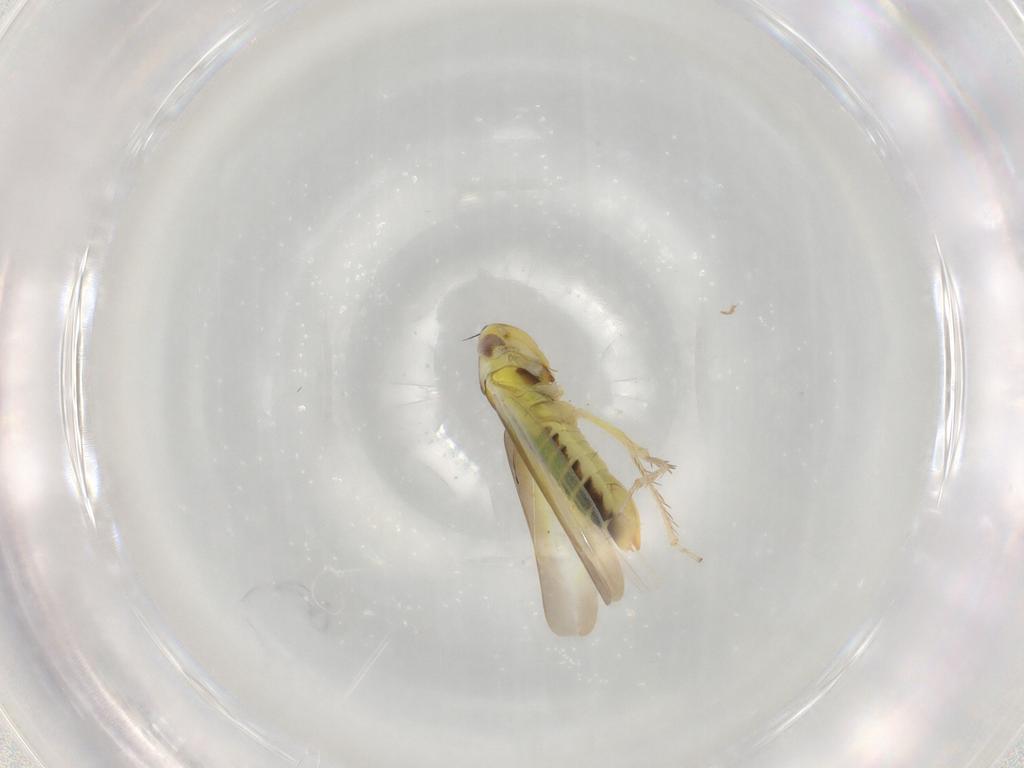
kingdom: Animalia
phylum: Arthropoda
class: Insecta
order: Hemiptera
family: Cicadellidae
